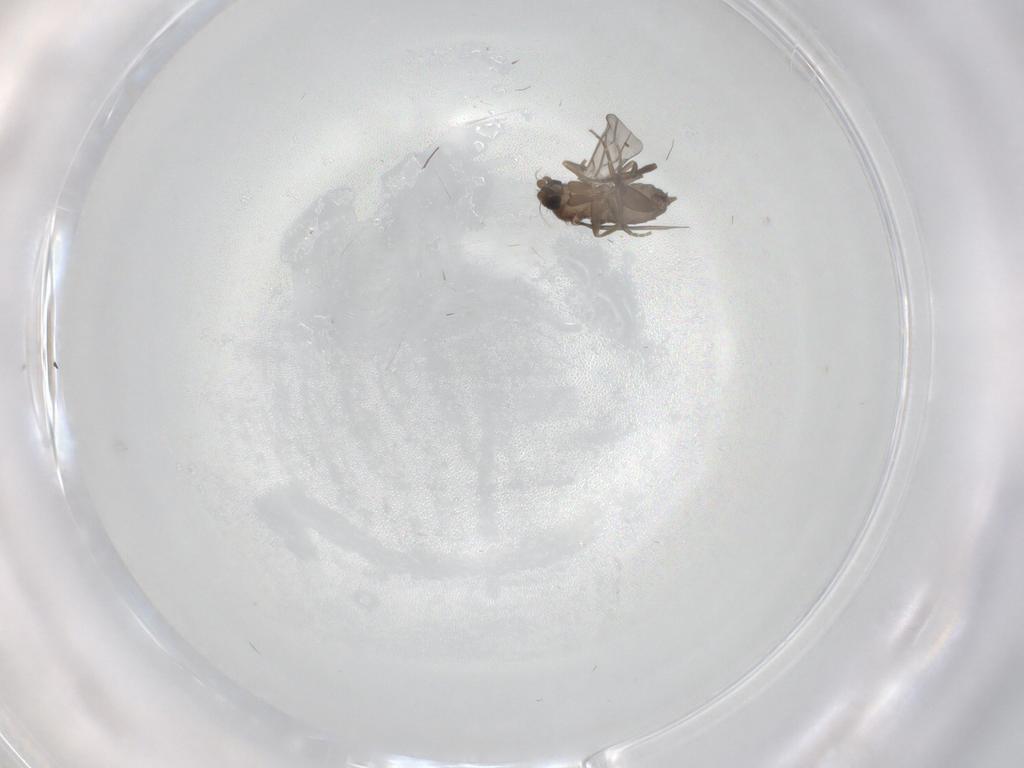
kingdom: Animalia
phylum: Arthropoda
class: Insecta
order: Diptera
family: Phoridae
